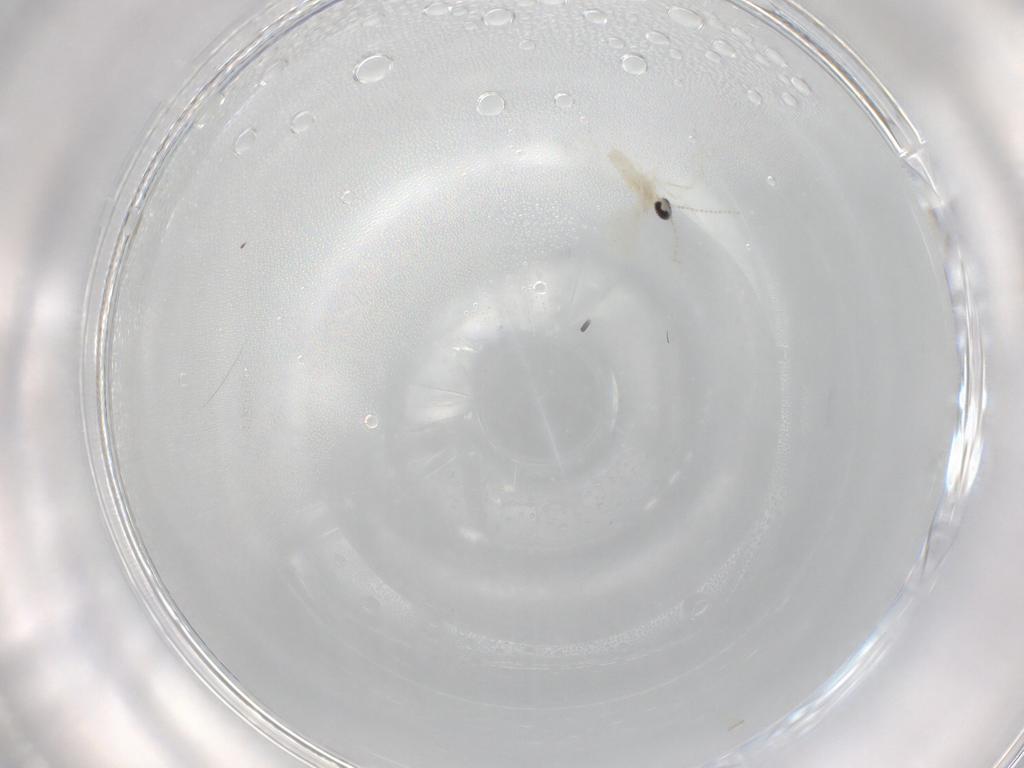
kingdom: Animalia
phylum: Arthropoda
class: Insecta
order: Diptera
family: Cecidomyiidae
